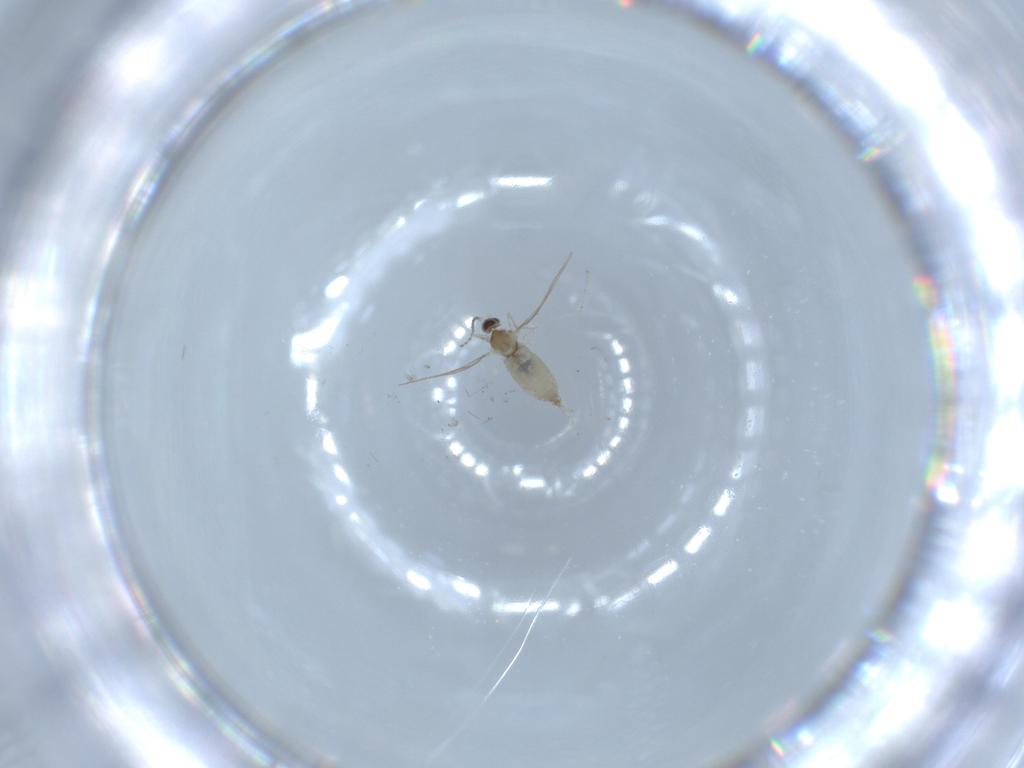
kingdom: Animalia
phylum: Arthropoda
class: Insecta
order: Diptera
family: Cecidomyiidae
